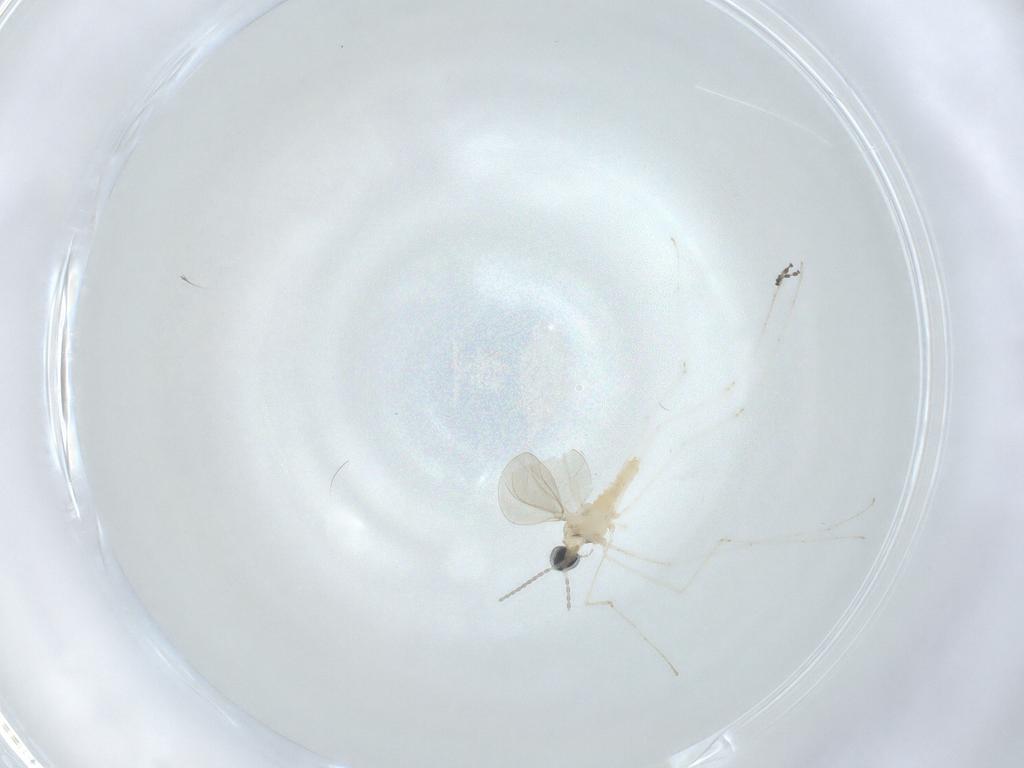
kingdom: Animalia
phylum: Arthropoda
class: Insecta
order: Diptera
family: Cecidomyiidae
